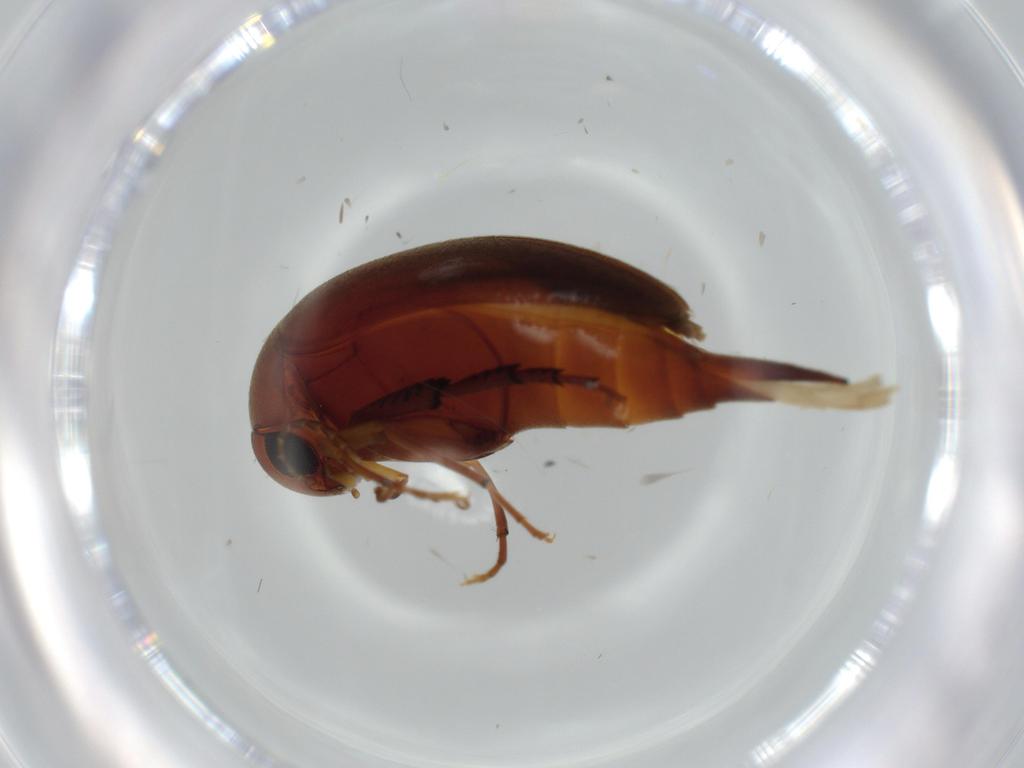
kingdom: Animalia
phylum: Arthropoda
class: Insecta
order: Coleoptera
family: Mordellidae
